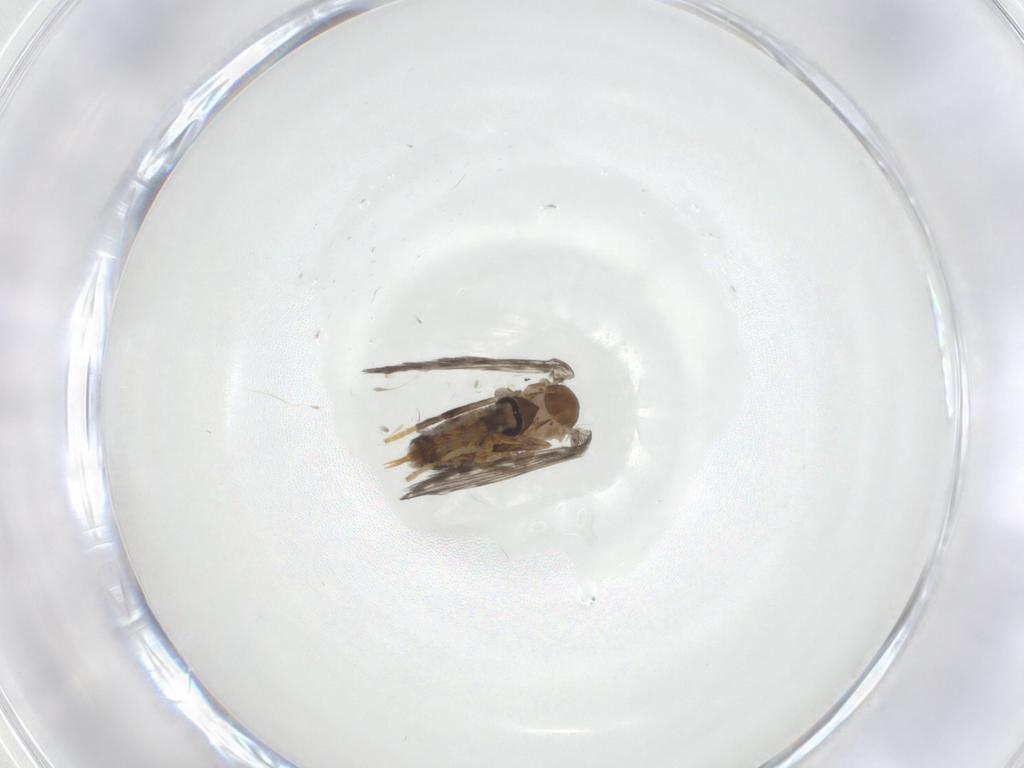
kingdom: Animalia
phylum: Arthropoda
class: Insecta
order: Diptera
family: Psychodidae
